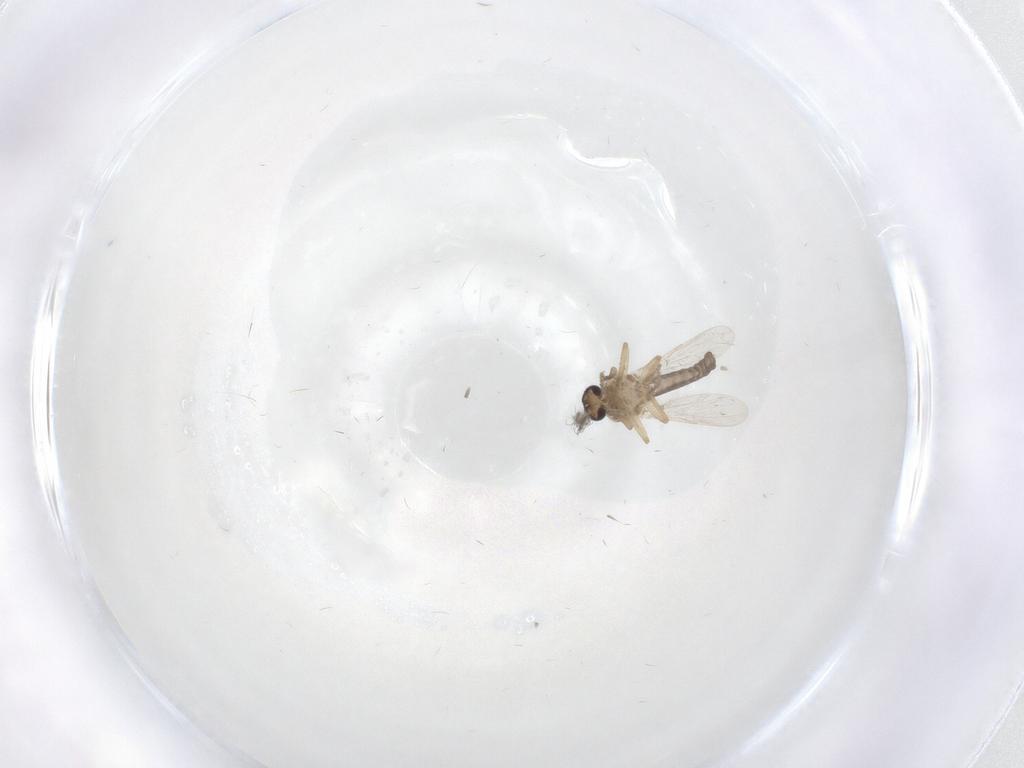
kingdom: Animalia
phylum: Arthropoda
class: Insecta
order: Diptera
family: Ceratopogonidae
